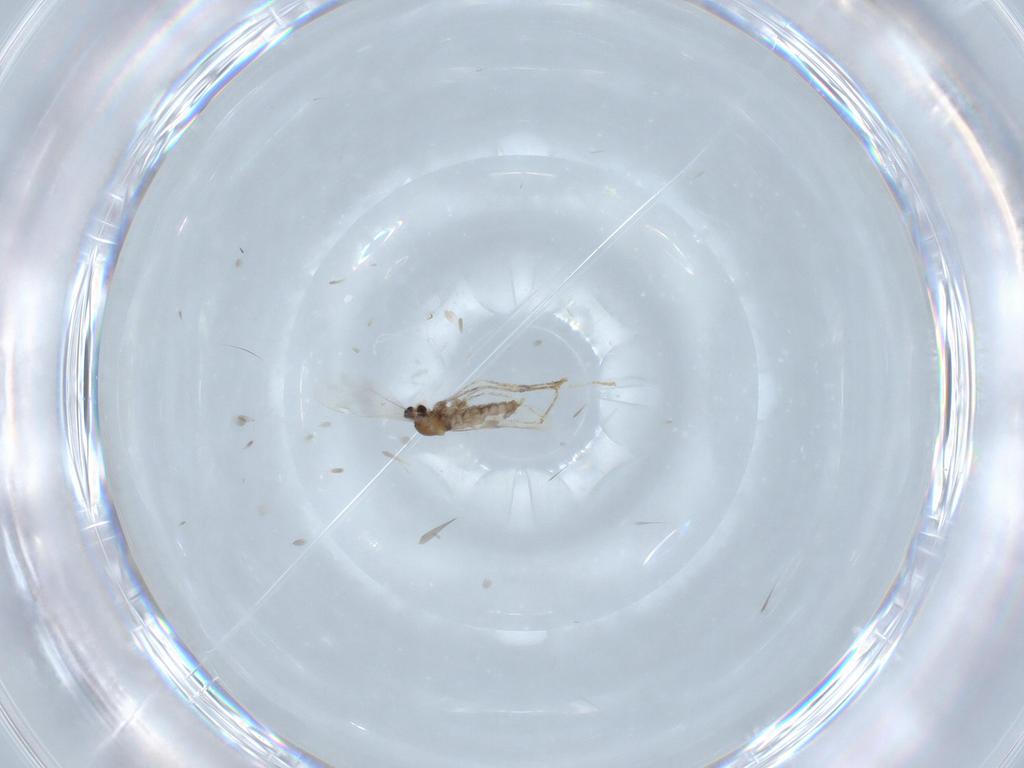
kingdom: Animalia
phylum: Arthropoda
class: Insecta
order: Diptera
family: Cecidomyiidae
